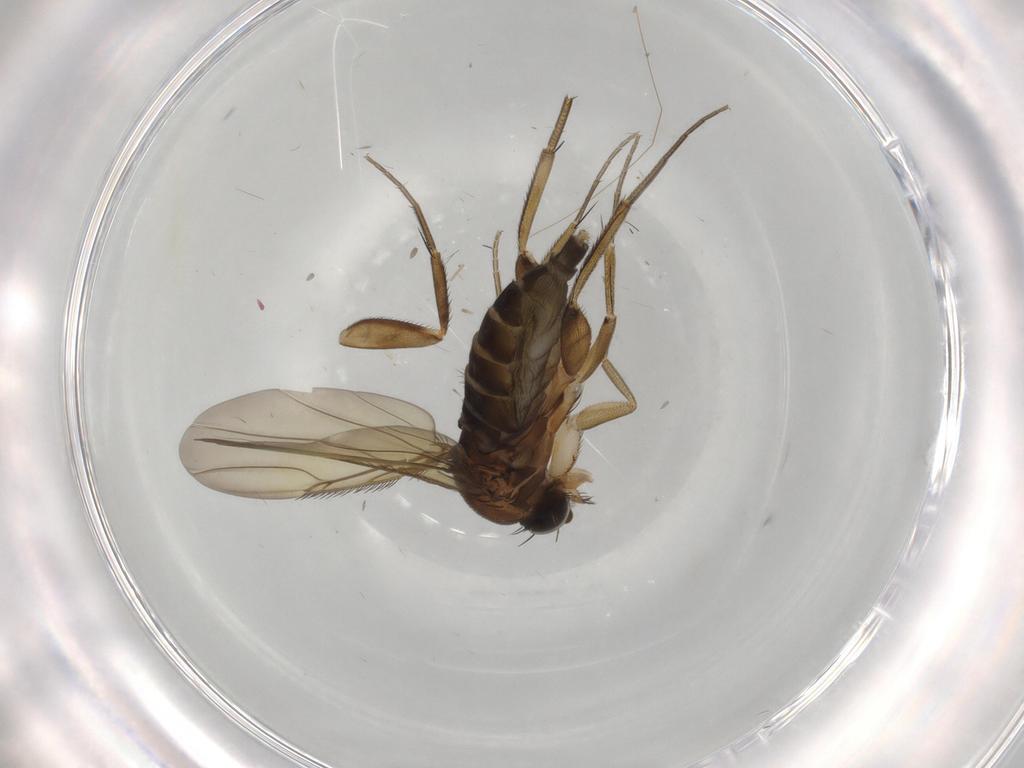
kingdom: Animalia
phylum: Arthropoda
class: Insecta
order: Diptera
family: Phoridae
